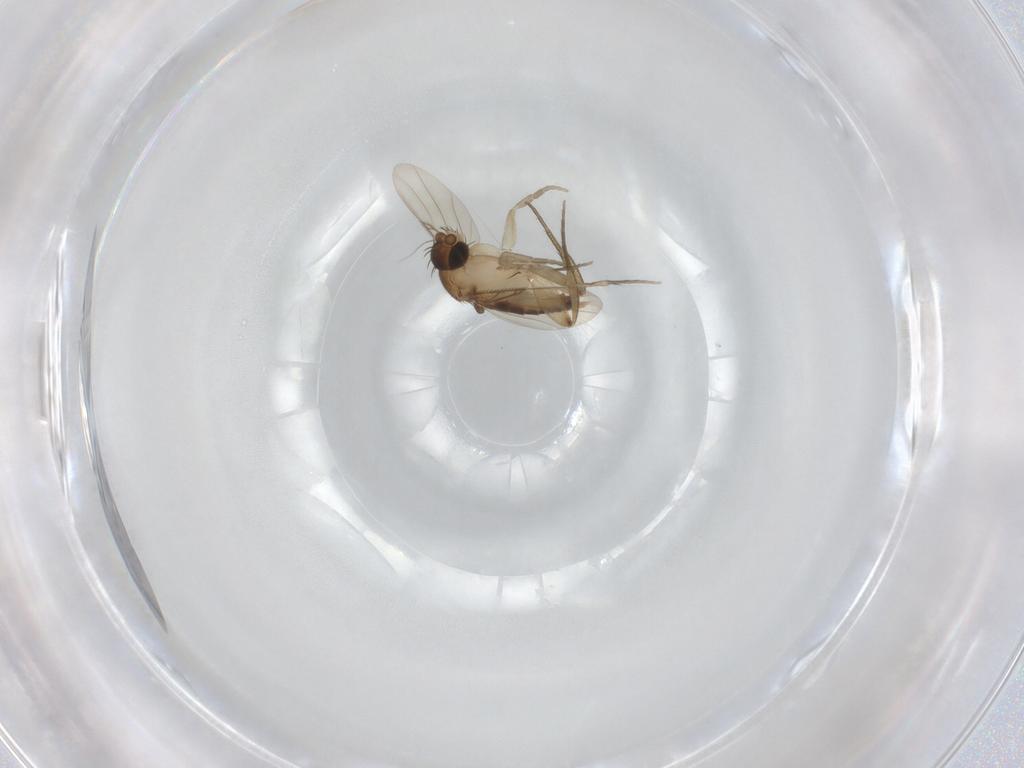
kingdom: Animalia
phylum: Arthropoda
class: Insecta
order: Diptera
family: Phoridae
